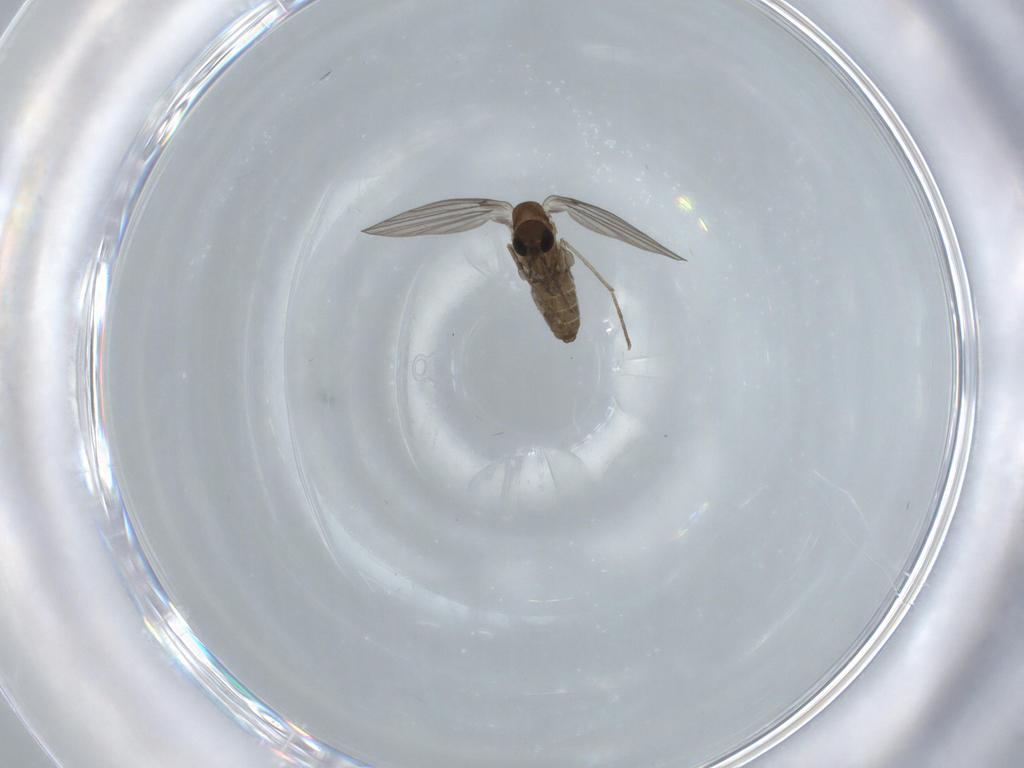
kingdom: Animalia
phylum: Arthropoda
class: Insecta
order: Diptera
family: Psychodidae
